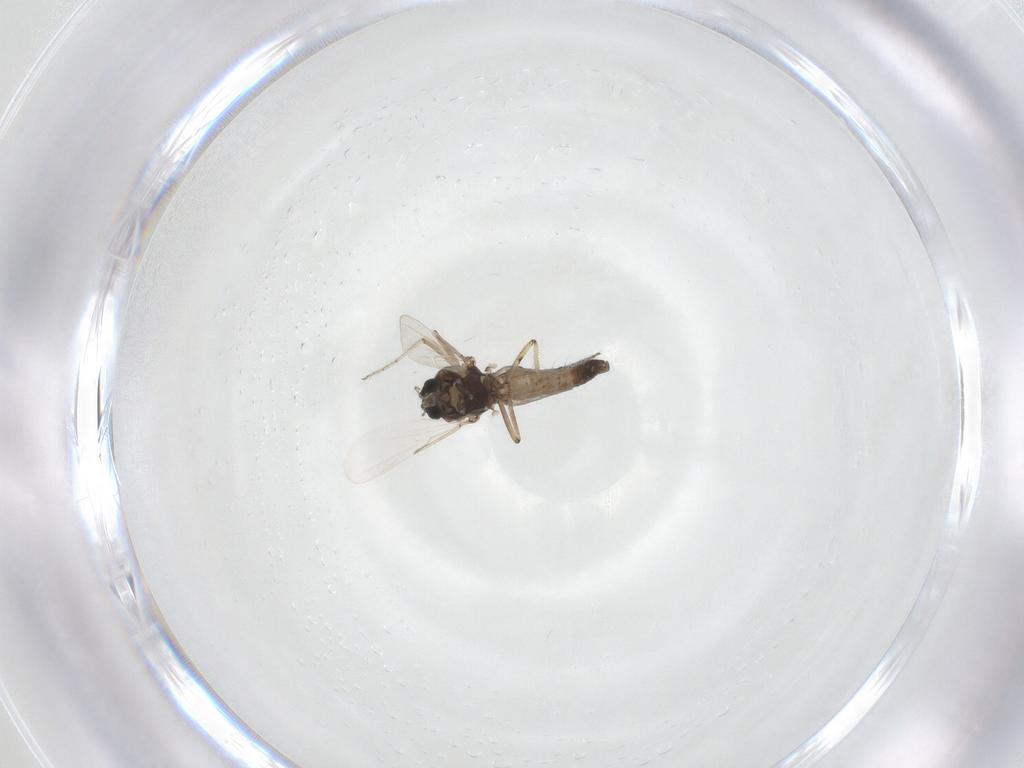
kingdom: Animalia
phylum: Arthropoda
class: Insecta
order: Diptera
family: Ceratopogonidae
